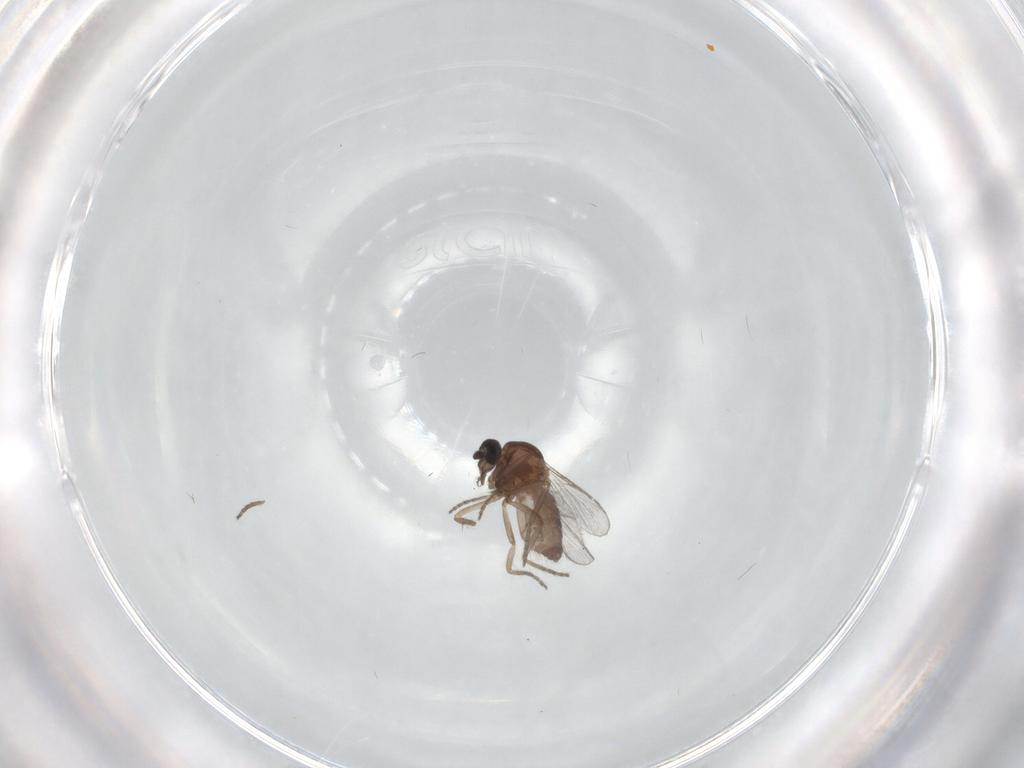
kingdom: Animalia
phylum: Arthropoda
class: Insecta
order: Diptera
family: Ceratopogonidae
